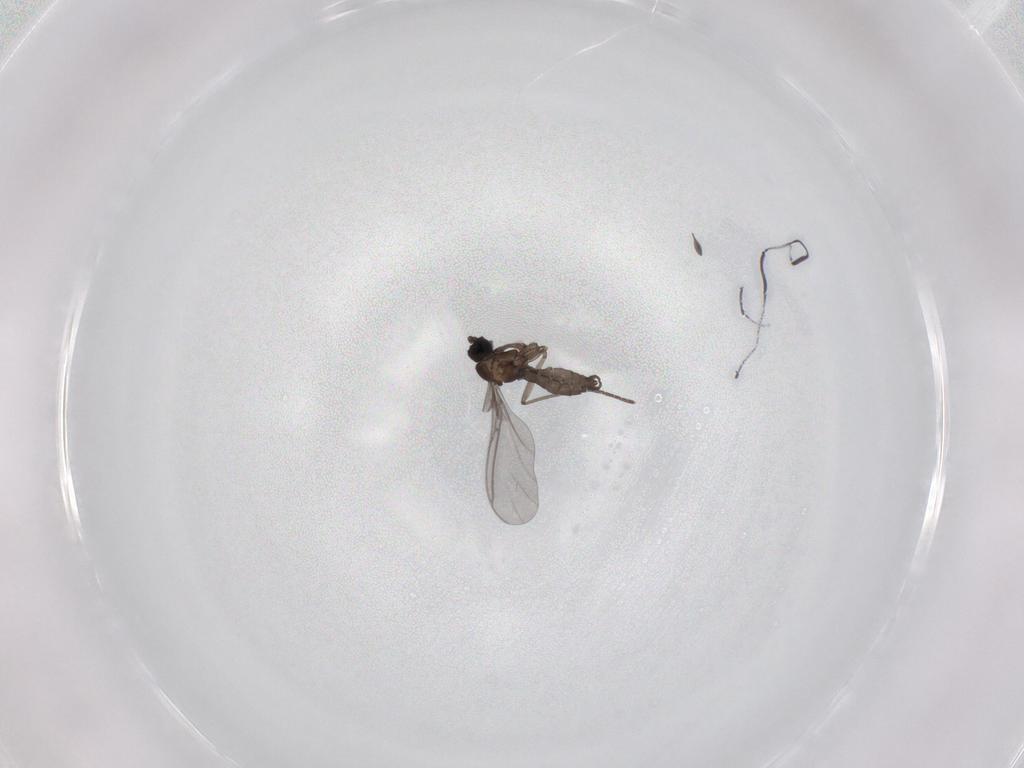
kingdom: Animalia
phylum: Arthropoda
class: Insecta
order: Diptera
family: Sciaridae
